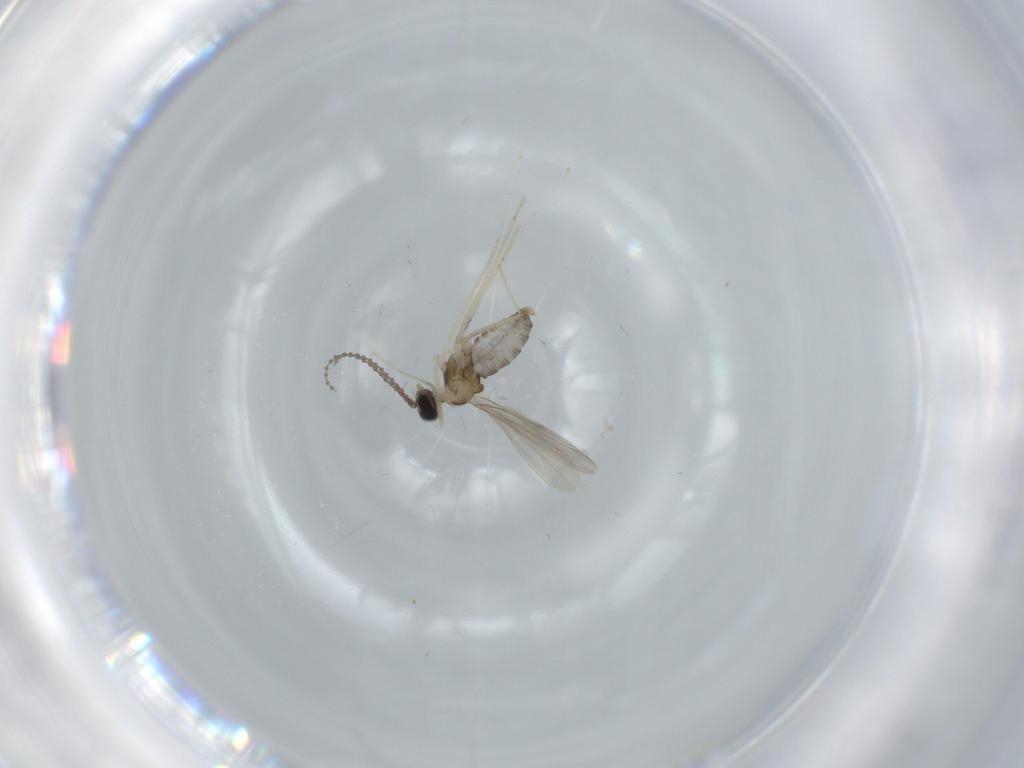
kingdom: Animalia
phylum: Arthropoda
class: Insecta
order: Diptera
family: Cecidomyiidae
